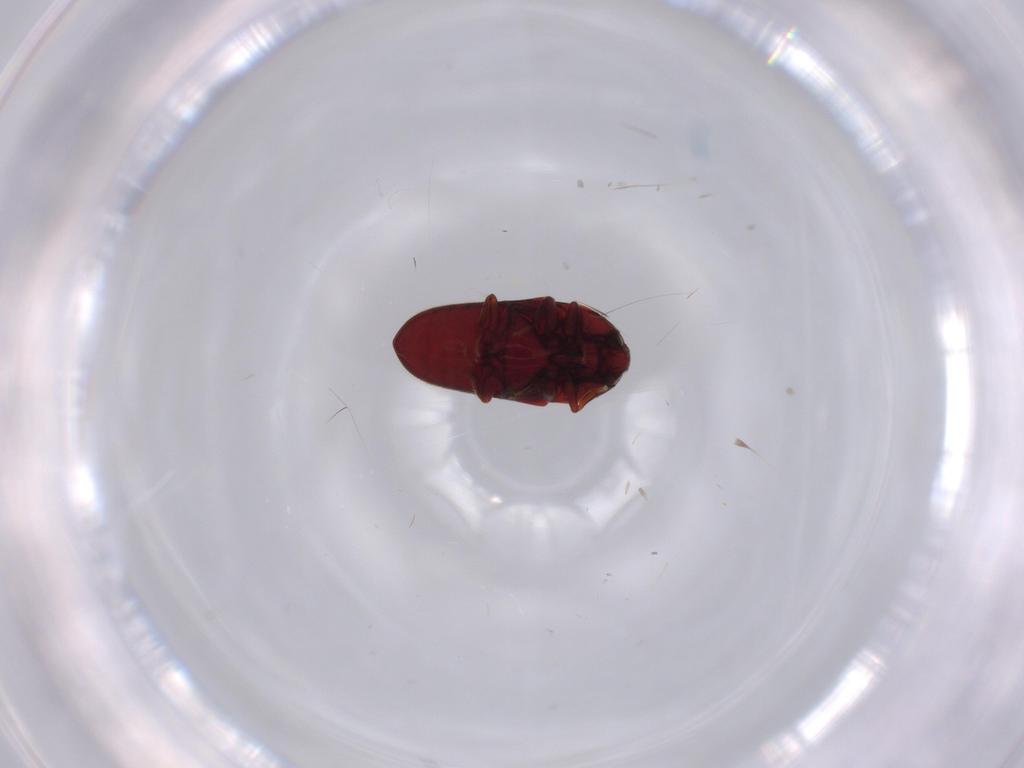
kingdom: Animalia
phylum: Arthropoda
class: Insecta
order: Coleoptera
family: Throscidae
